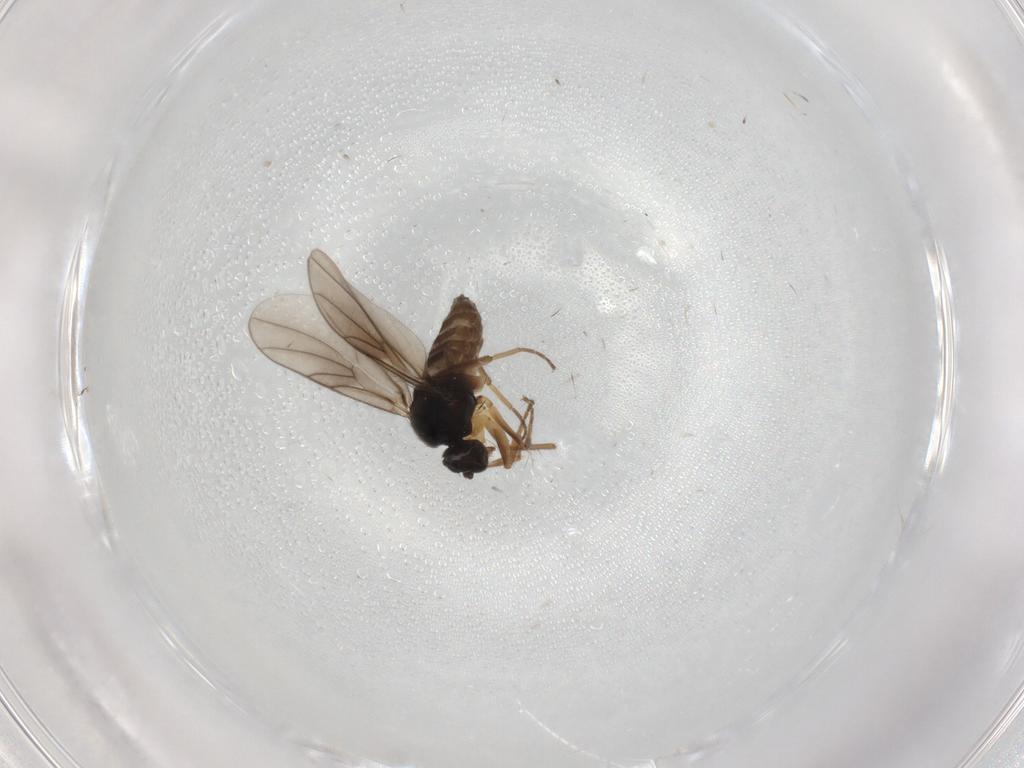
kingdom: Animalia
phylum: Arthropoda
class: Insecta
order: Diptera
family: Hybotidae
